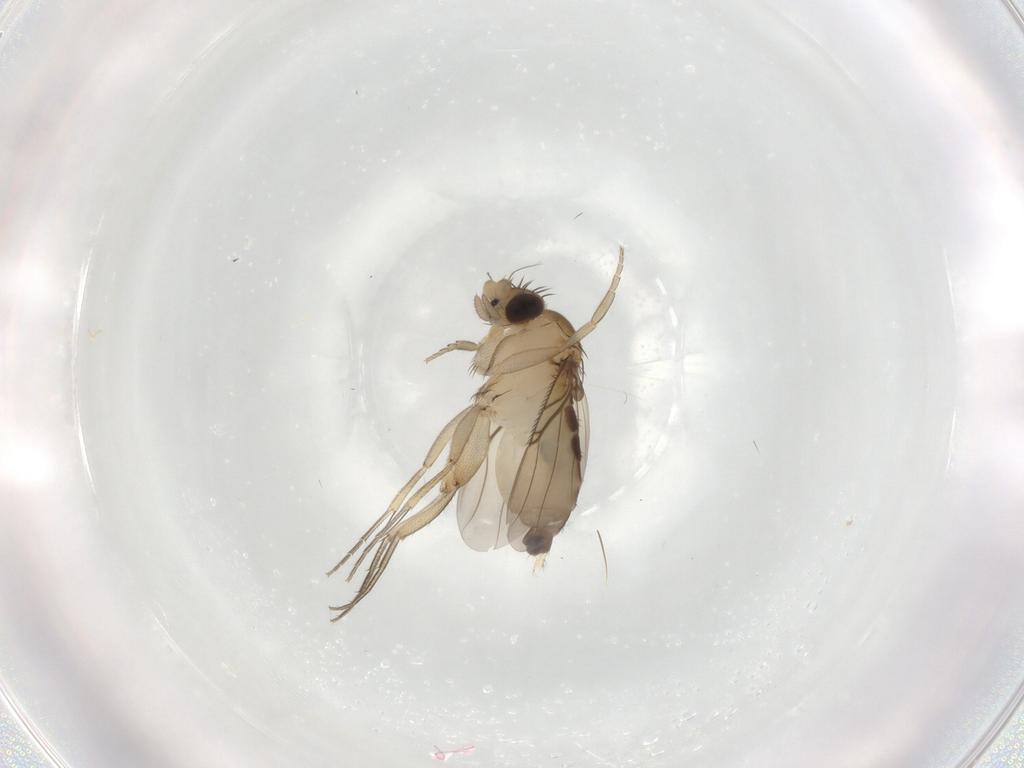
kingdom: Animalia
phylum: Arthropoda
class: Insecta
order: Diptera
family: Phoridae
